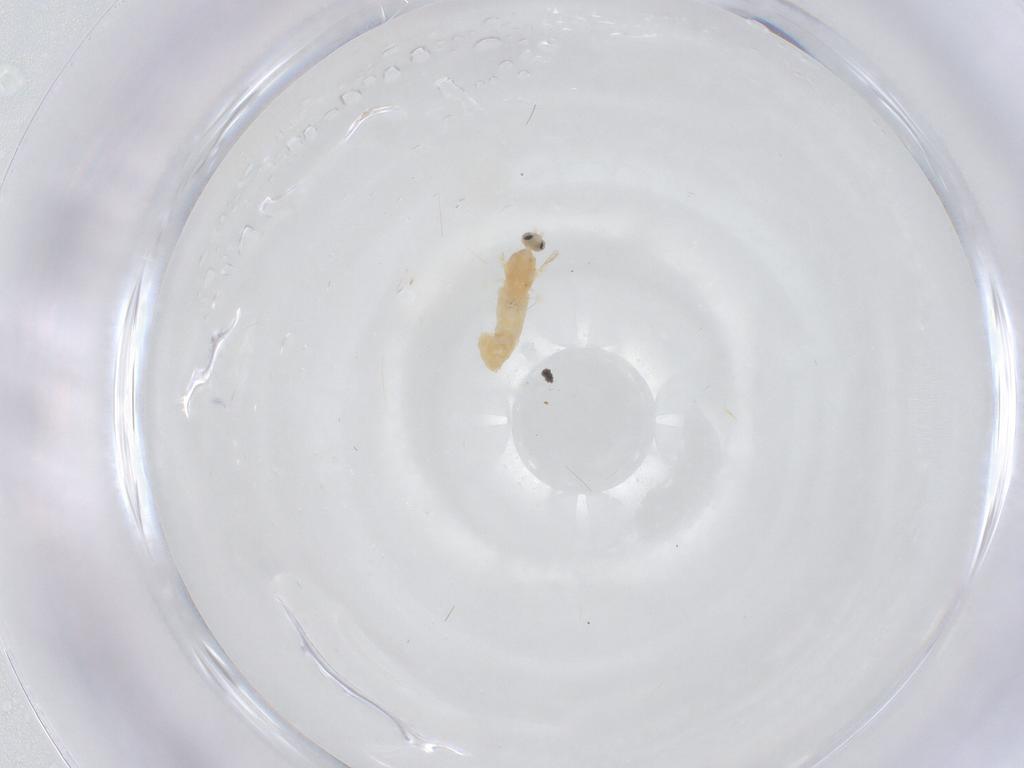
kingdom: Animalia
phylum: Arthropoda
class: Insecta
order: Diptera
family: Cecidomyiidae
